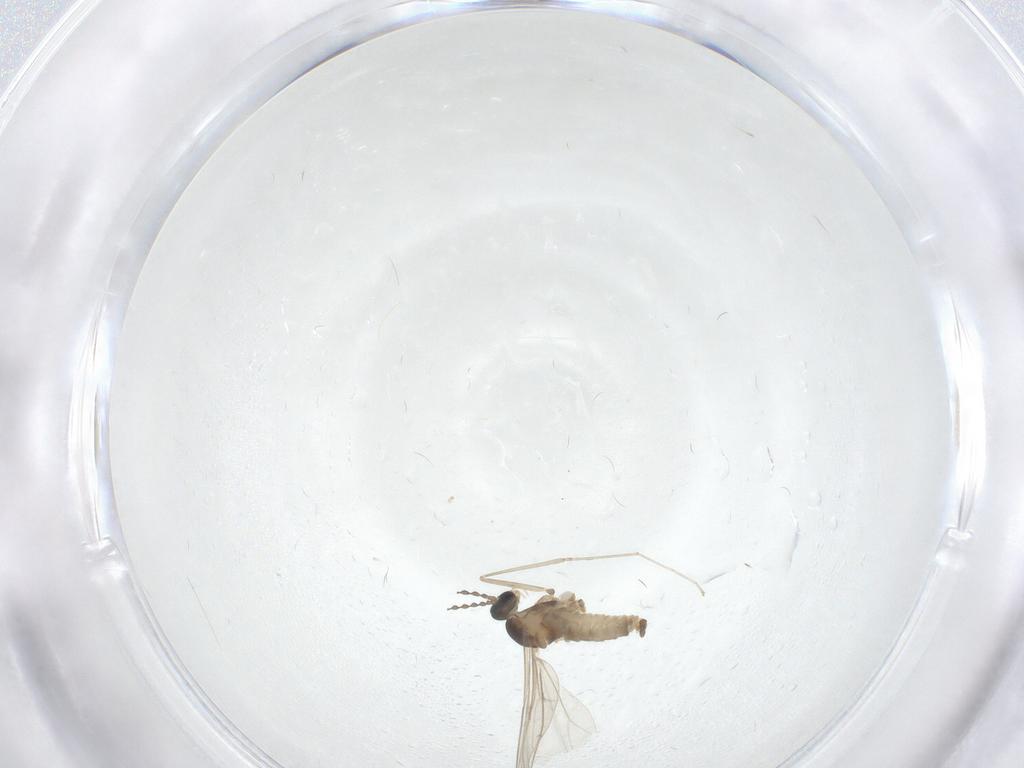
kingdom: Animalia
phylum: Arthropoda
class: Insecta
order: Diptera
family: Cecidomyiidae
